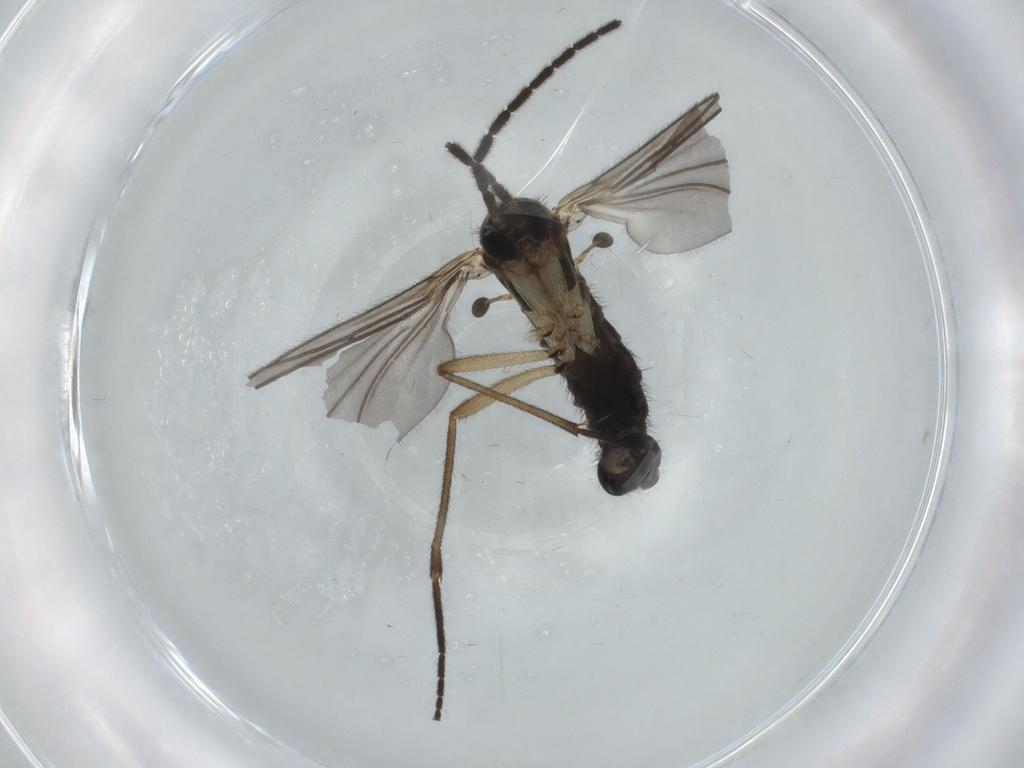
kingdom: Animalia
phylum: Arthropoda
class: Insecta
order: Diptera
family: Sciaridae
